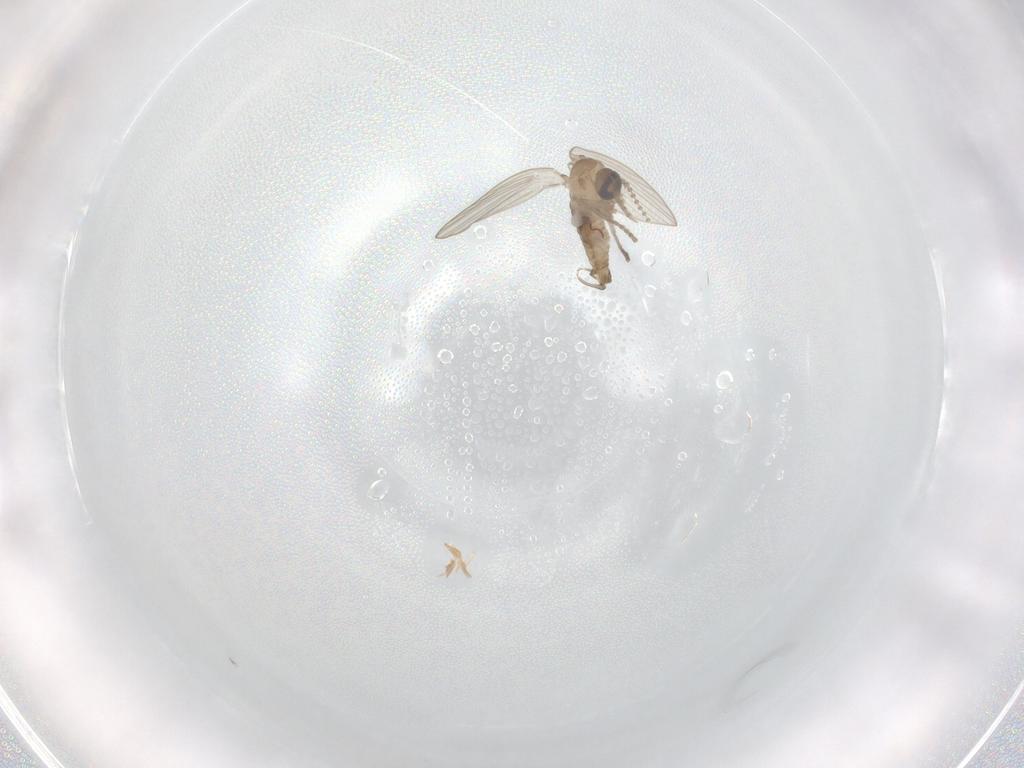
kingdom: Animalia
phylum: Arthropoda
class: Insecta
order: Diptera
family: Psychodidae
